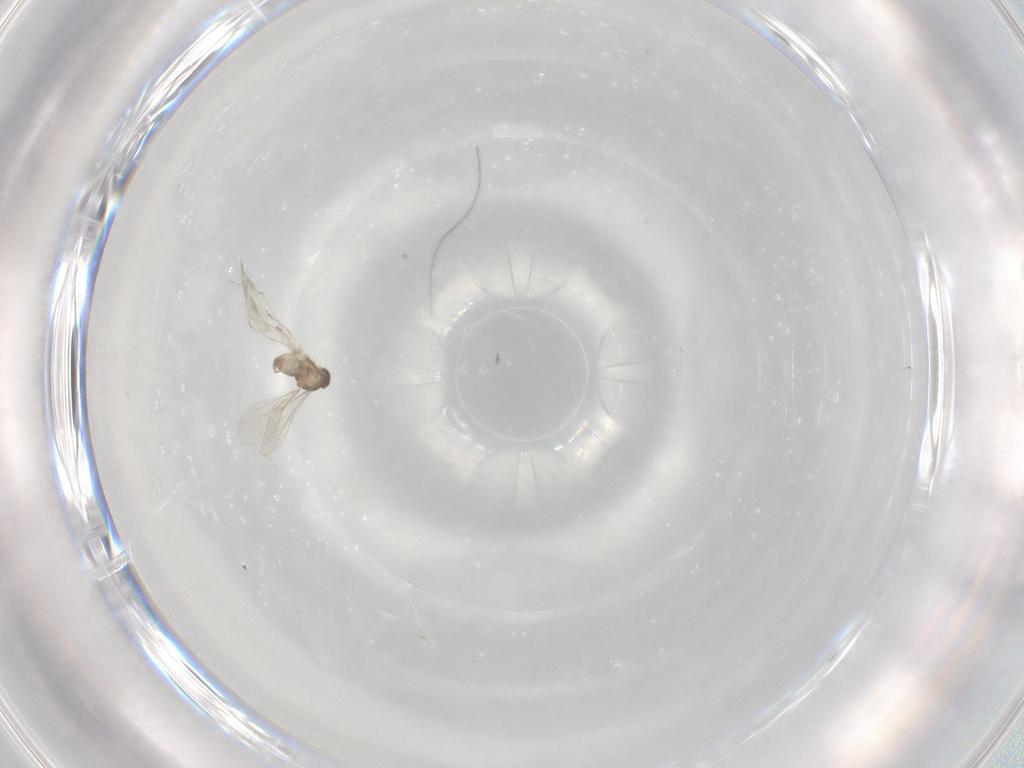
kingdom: Animalia
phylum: Arthropoda
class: Insecta
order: Diptera
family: Cecidomyiidae
